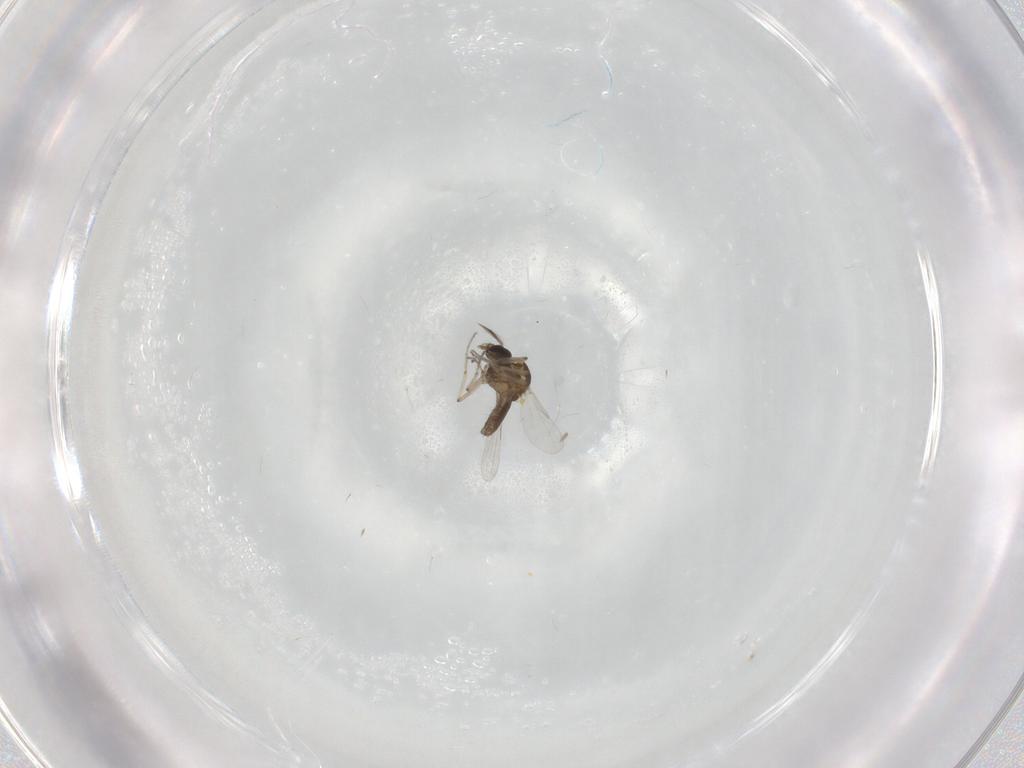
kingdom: Animalia
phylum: Arthropoda
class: Insecta
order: Diptera
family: Ceratopogonidae
